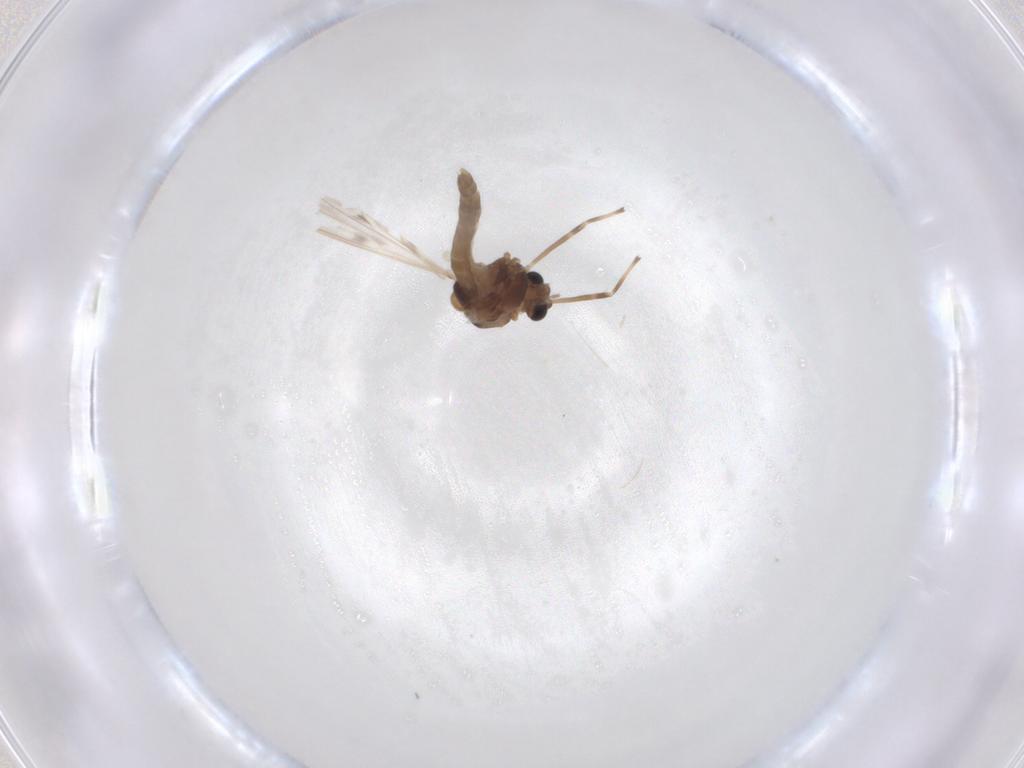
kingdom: Animalia
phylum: Arthropoda
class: Insecta
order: Diptera
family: Chironomidae
